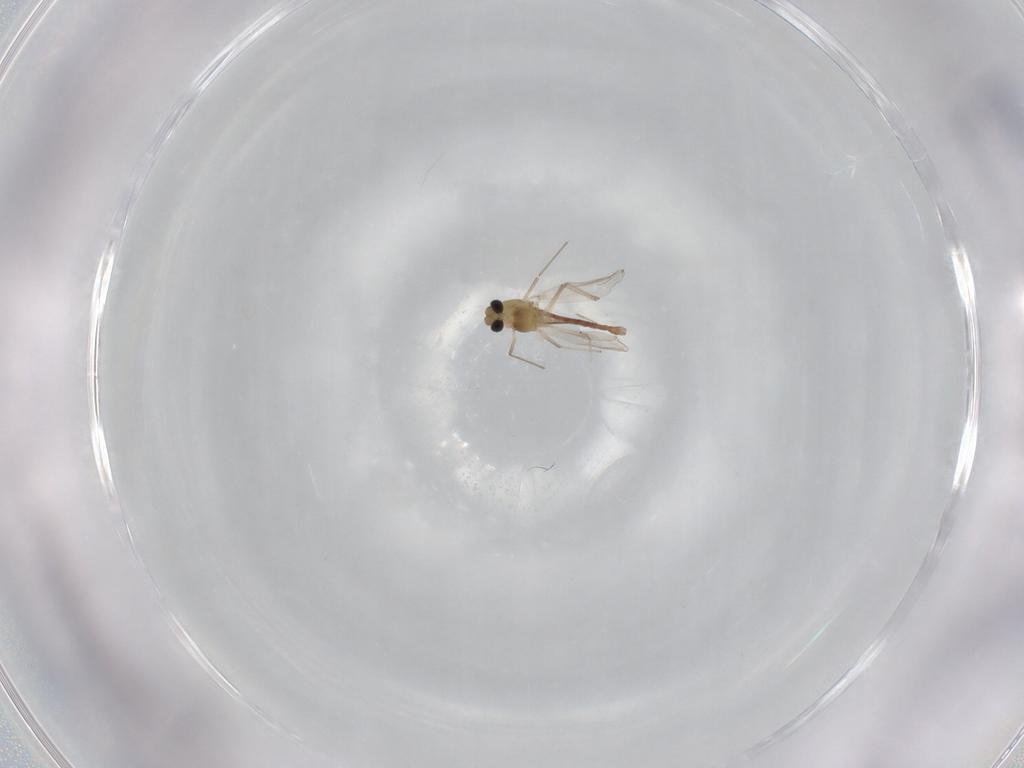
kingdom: Animalia
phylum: Arthropoda
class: Insecta
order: Diptera
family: Chironomidae
